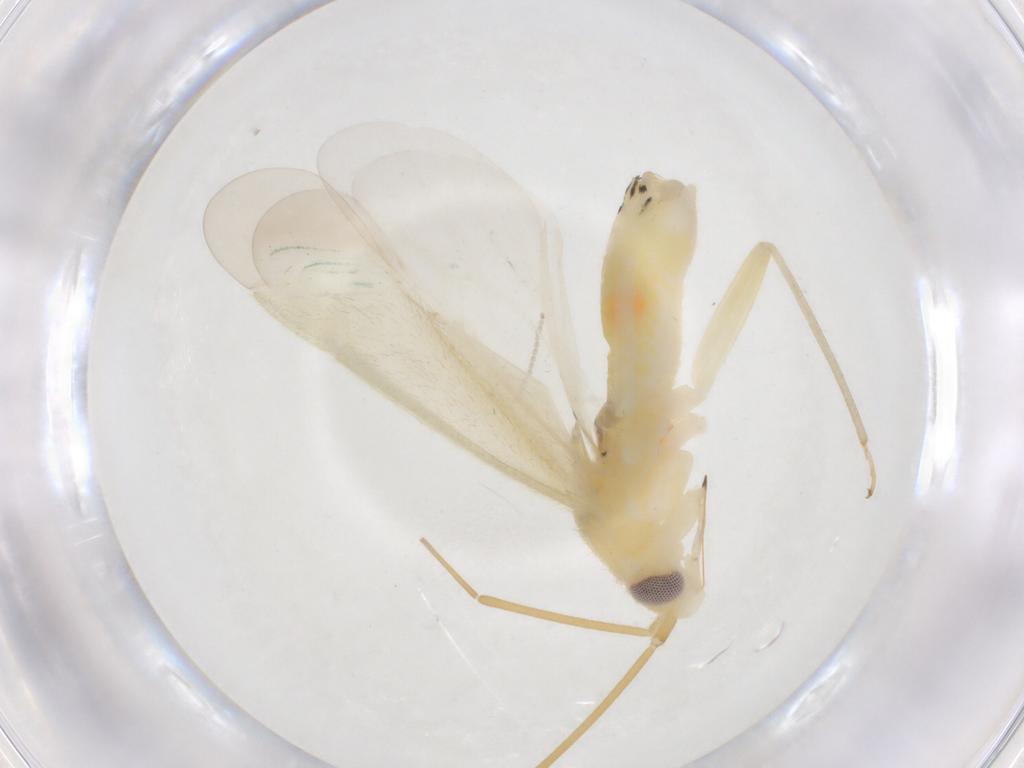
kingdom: Animalia
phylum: Arthropoda
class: Insecta
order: Hemiptera
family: Miridae
